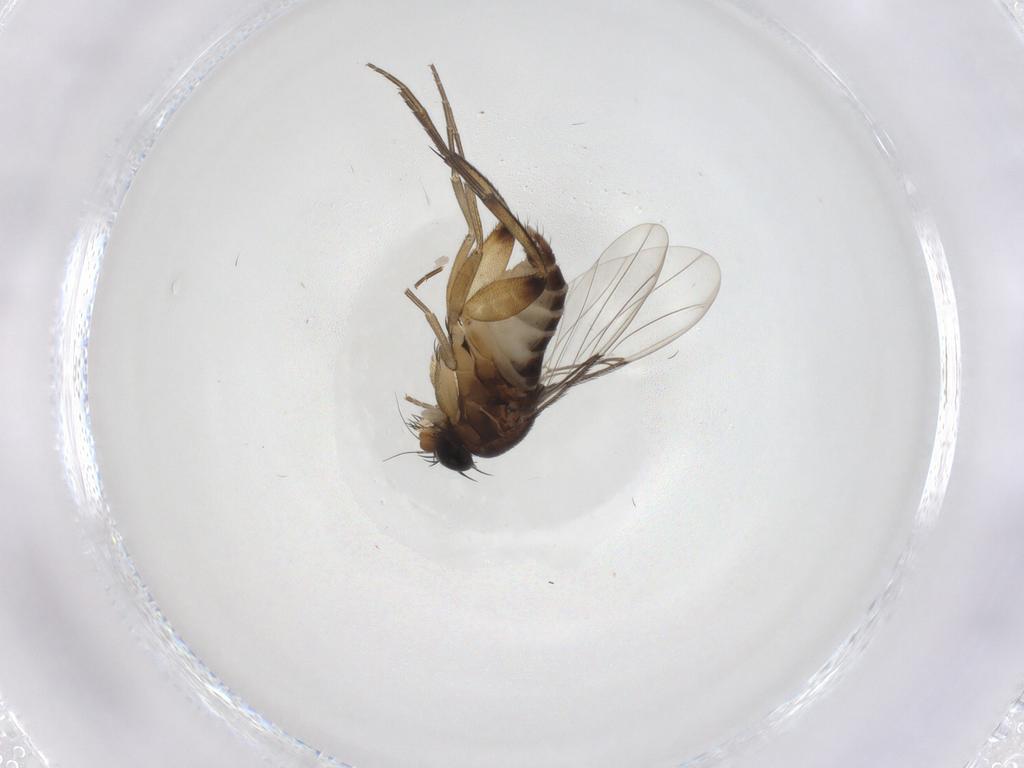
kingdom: Animalia
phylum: Arthropoda
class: Insecta
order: Diptera
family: Phoridae
